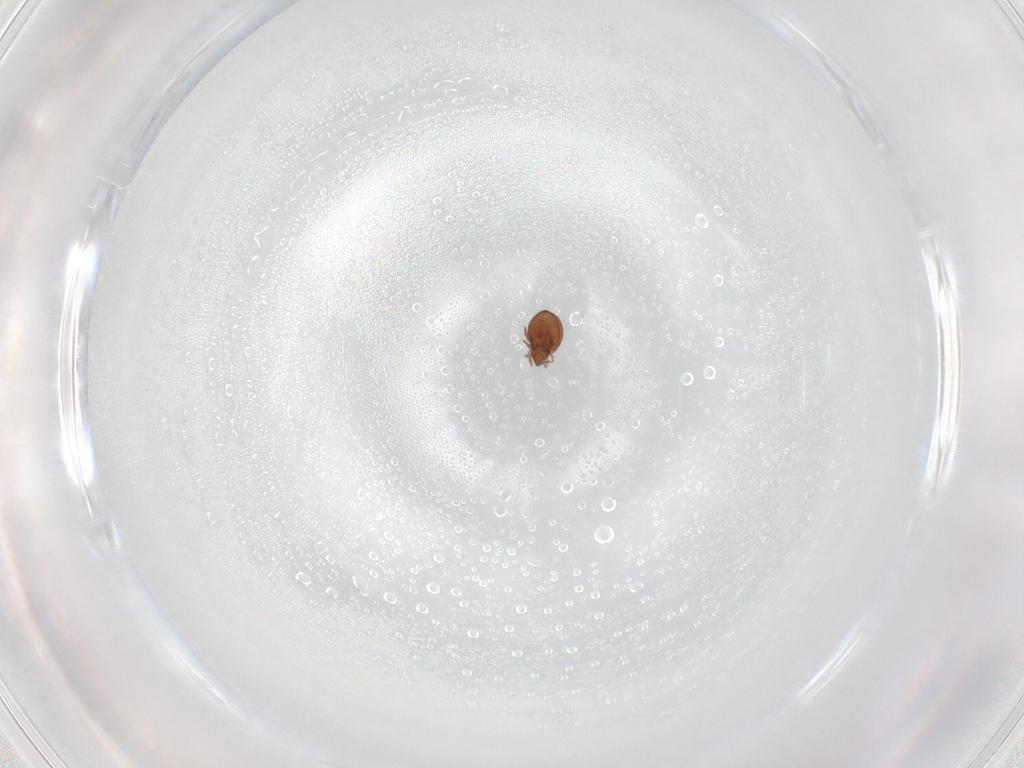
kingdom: Animalia
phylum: Arthropoda
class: Arachnida
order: Sarcoptiformes
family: Oribatulidae
